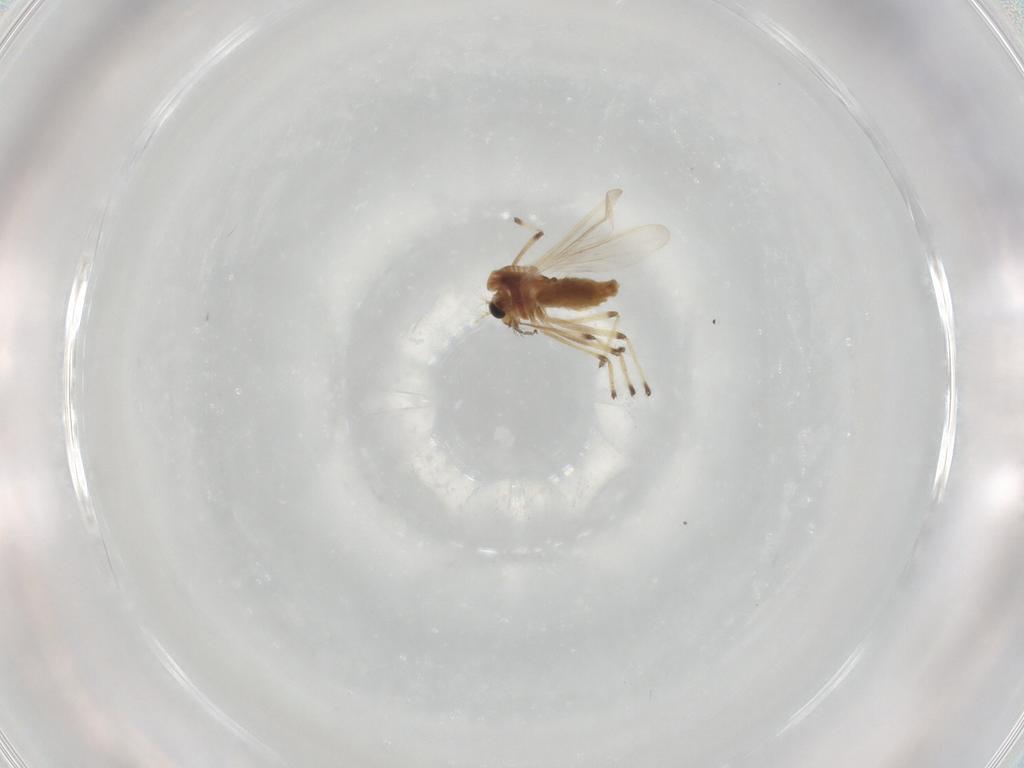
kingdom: Animalia
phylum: Arthropoda
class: Insecta
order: Diptera
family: Chironomidae
